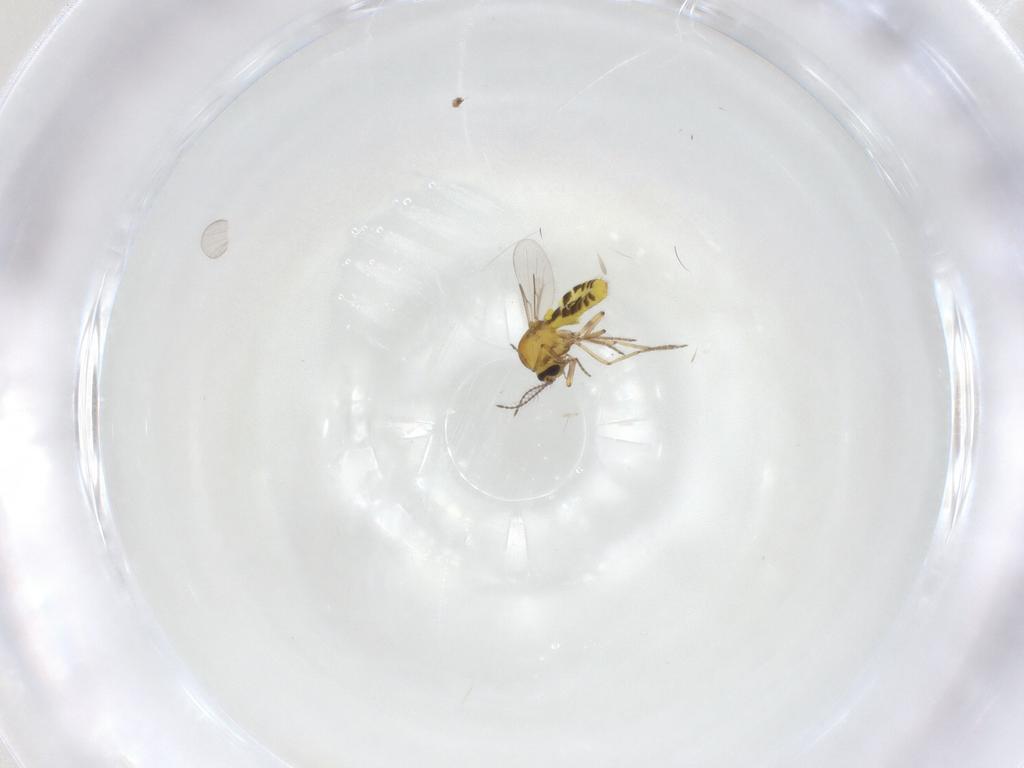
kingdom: Animalia
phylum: Arthropoda
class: Insecta
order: Diptera
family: Ceratopogonidae
